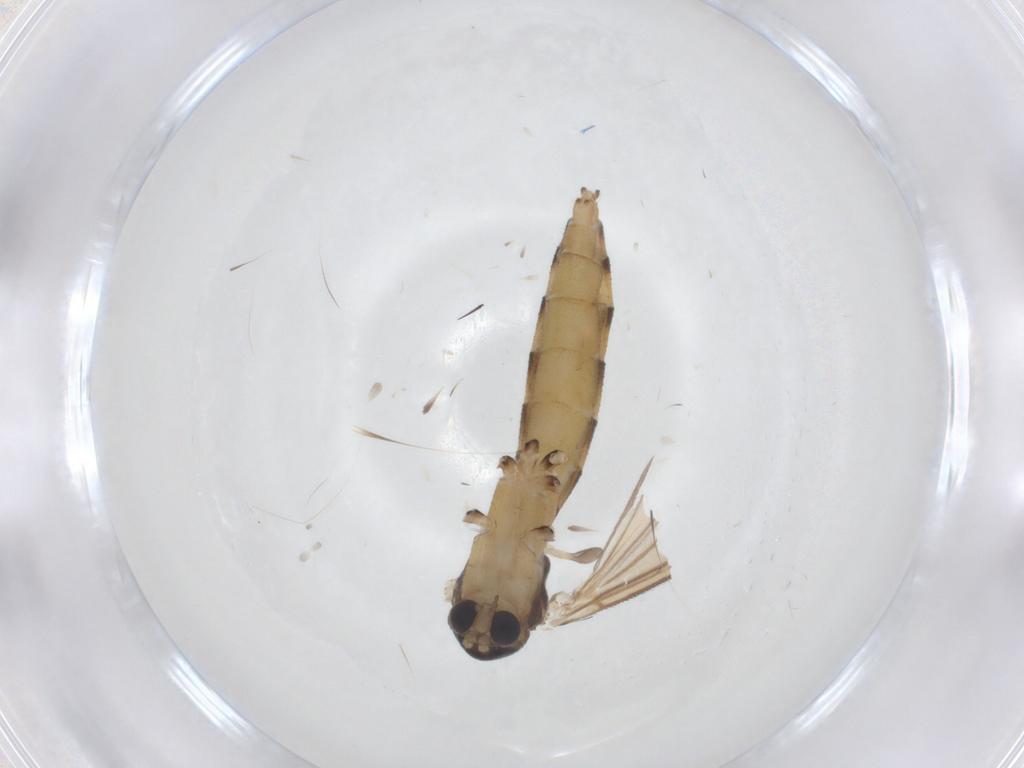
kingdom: Animalia
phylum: Arthropoda
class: Insecta
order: Diptera
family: Mycetophilidae
